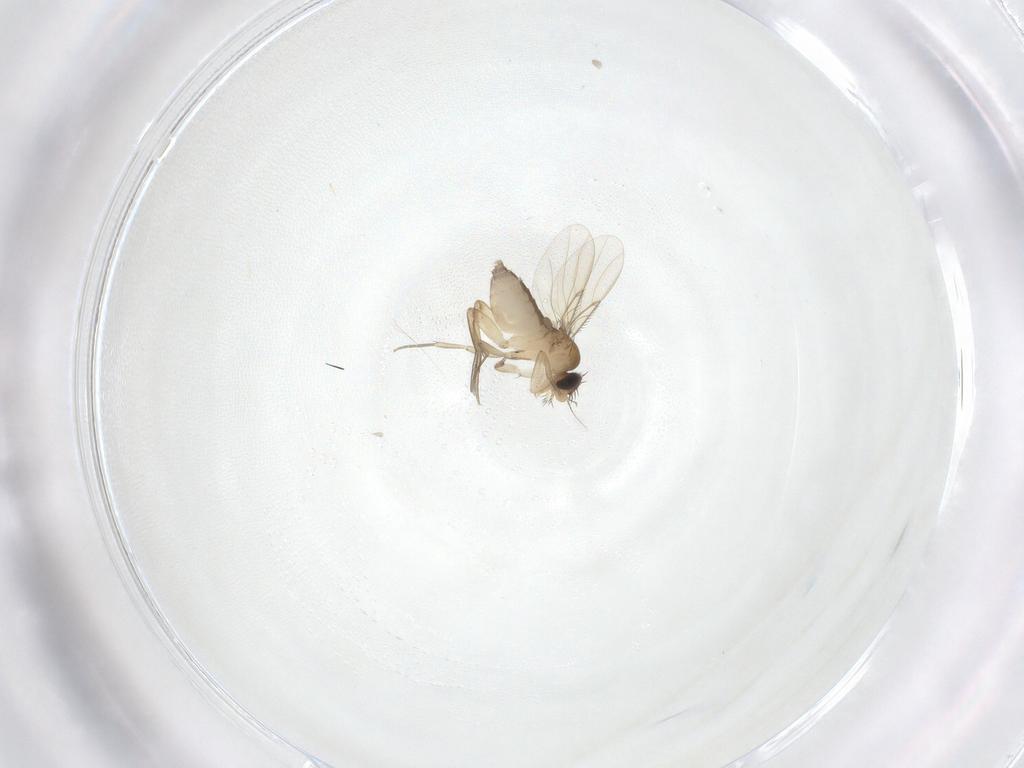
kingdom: Animalia
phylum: Arthropoda
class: Insecta
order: Diptera
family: Phoridae
